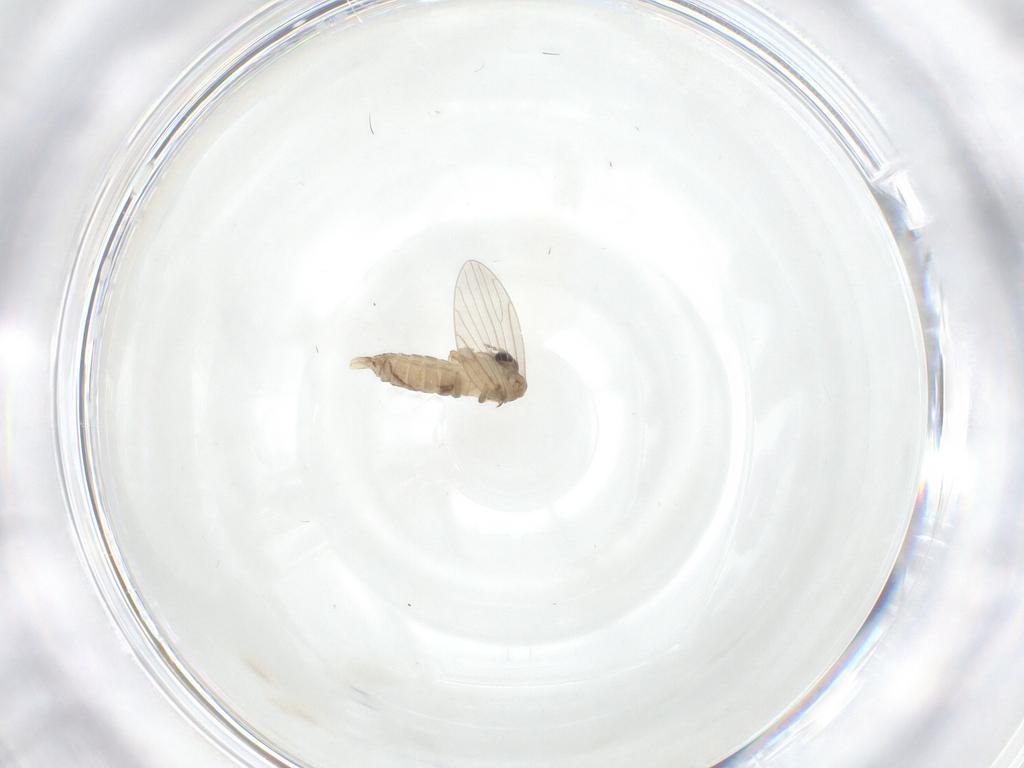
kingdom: Animalia
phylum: Arthropoda
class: Insecta
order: Diptera
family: Psychodidae
